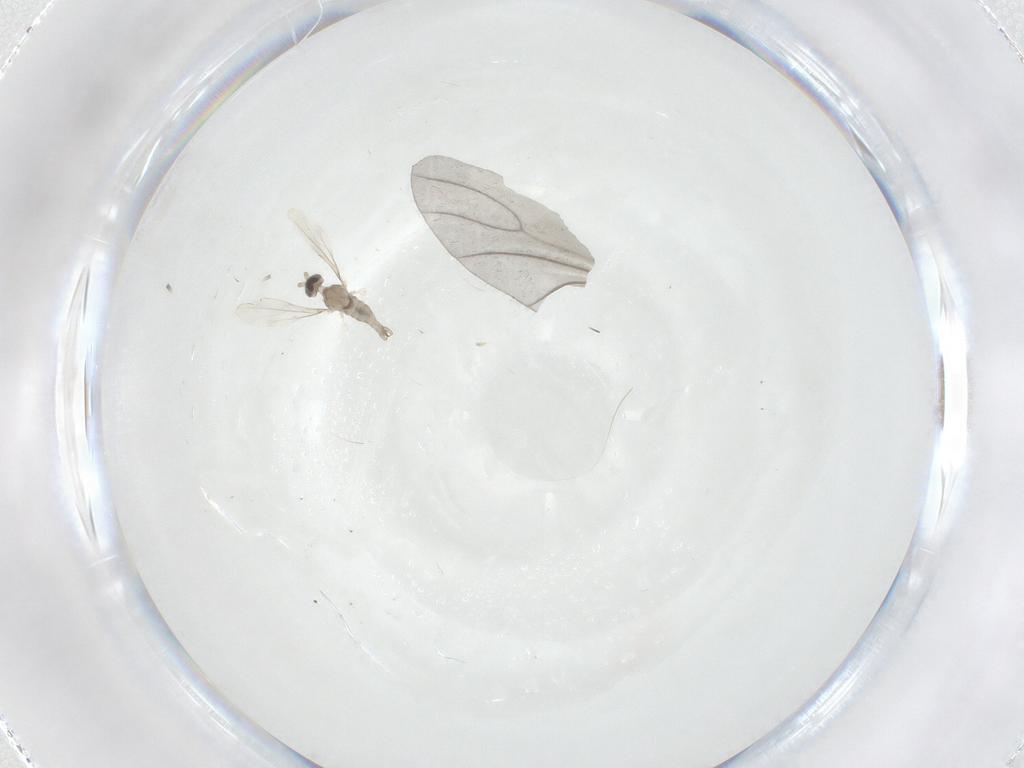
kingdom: Animalia
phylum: Arthropoda
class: Insecta
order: Diptera
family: Cecidomyiidae
